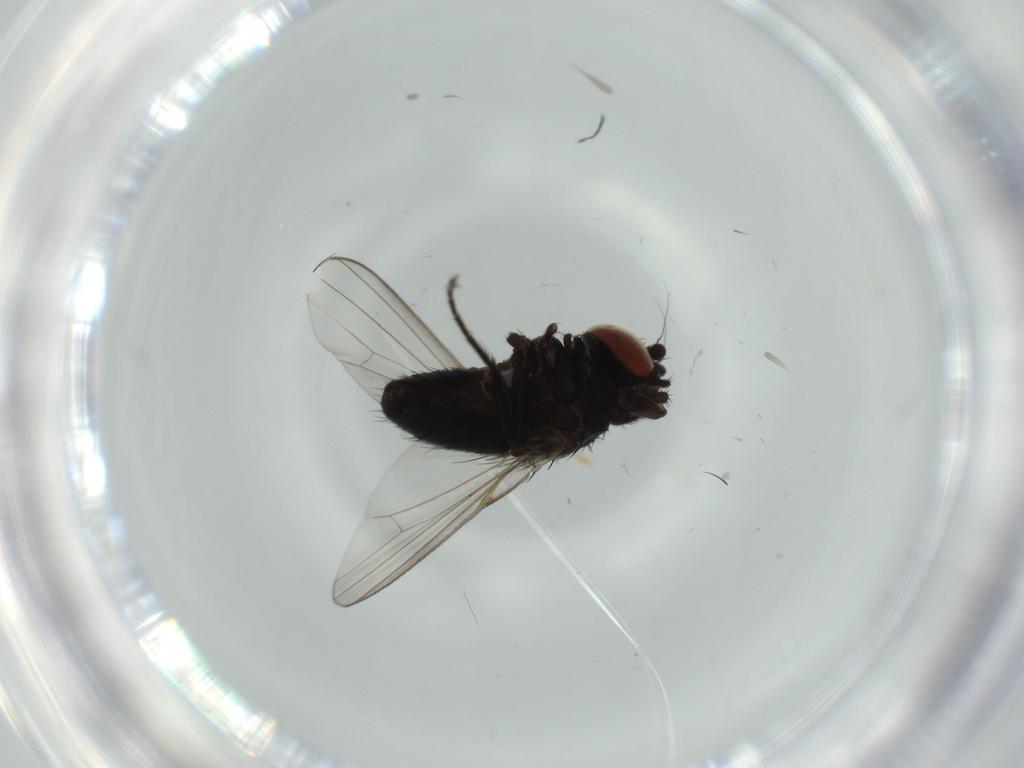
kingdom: Animalia
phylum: Arthropoda
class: Insecta
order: Diptera
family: Milichiidae
